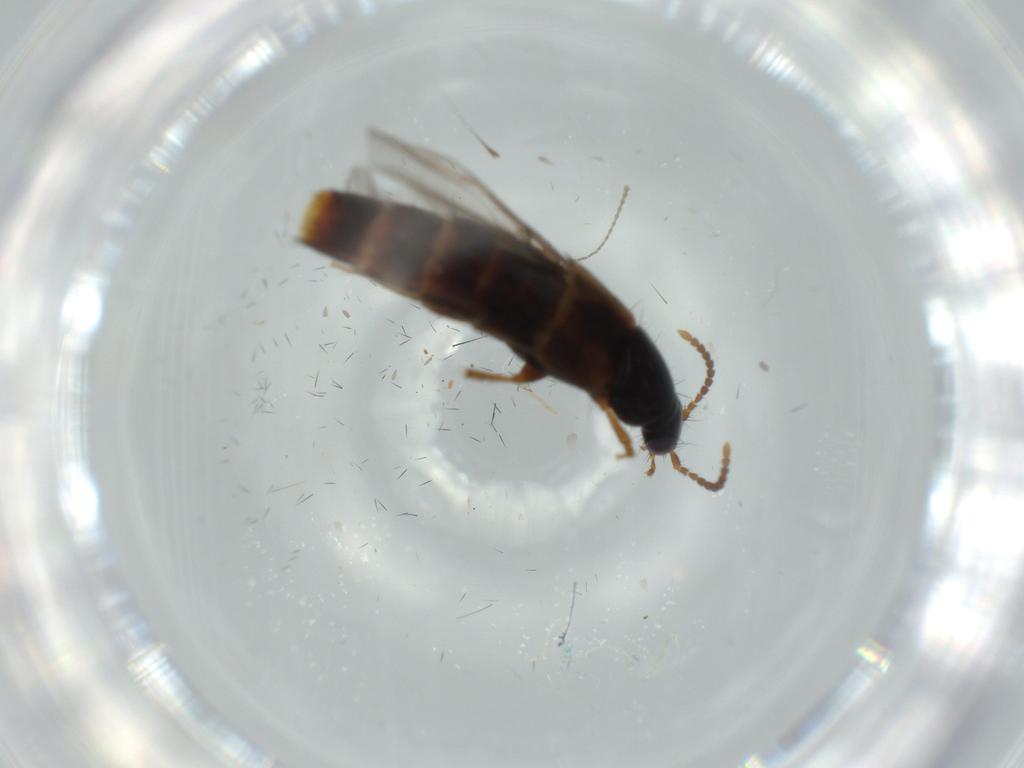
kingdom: Animalia
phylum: Arthropoda
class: Insecta
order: Coleoptera
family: Staphylinidae
